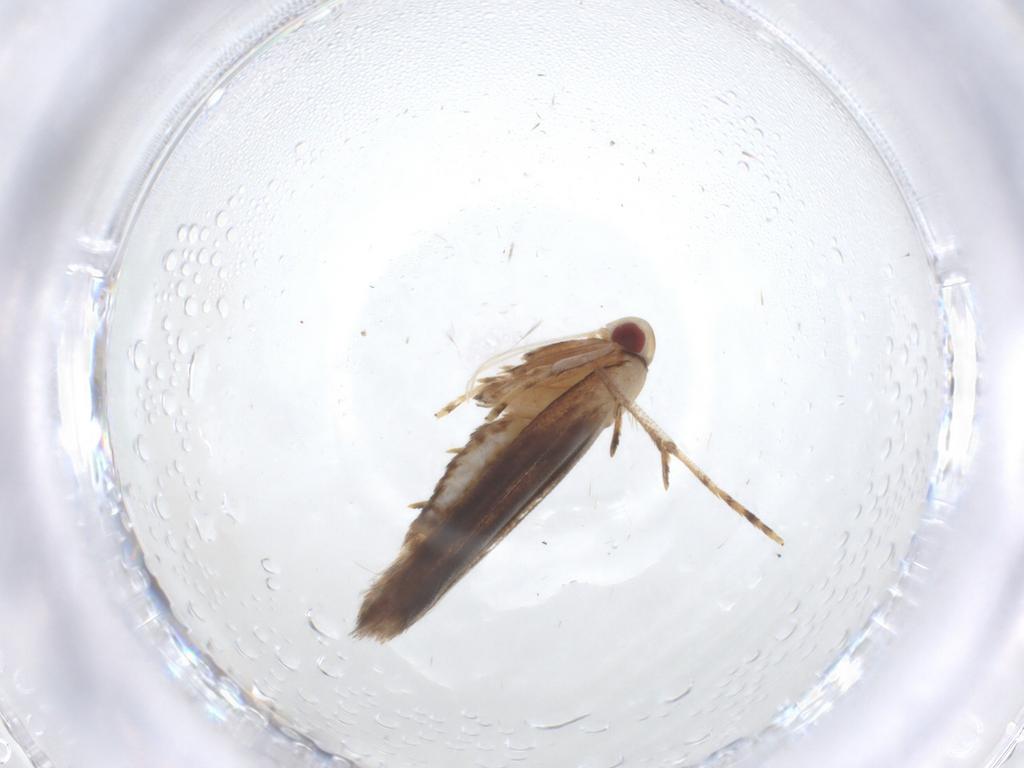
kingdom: Animalia
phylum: Arthropoda
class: Insecta
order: Lepidoptera
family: Cosmopterigidae
